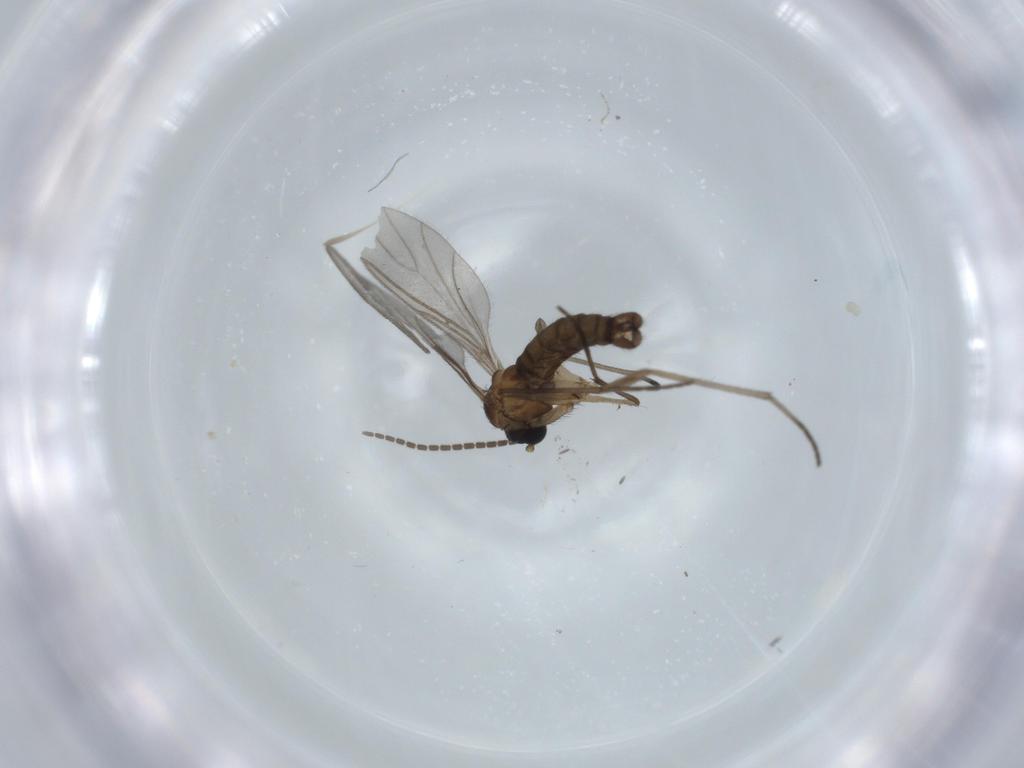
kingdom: Animalia
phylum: Arthropoda
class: Insecta
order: Diptera
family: Sciaridae
